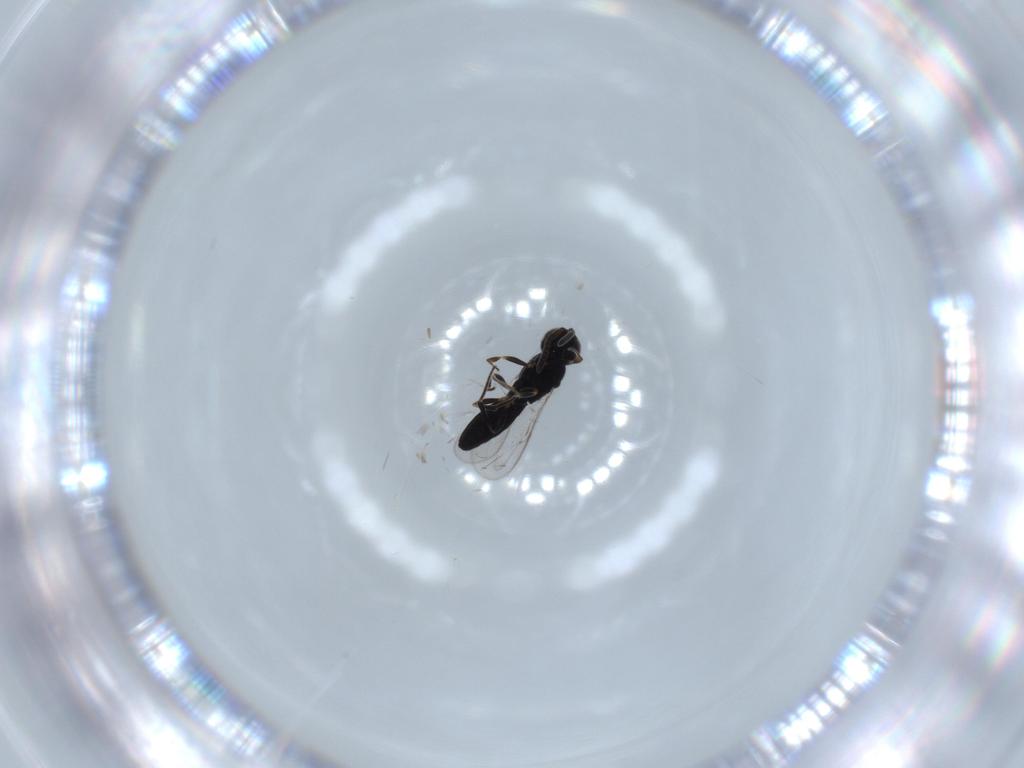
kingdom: Animalia
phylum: Arthropoda
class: Insecta
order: Hymenoptera
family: Scelionidae
